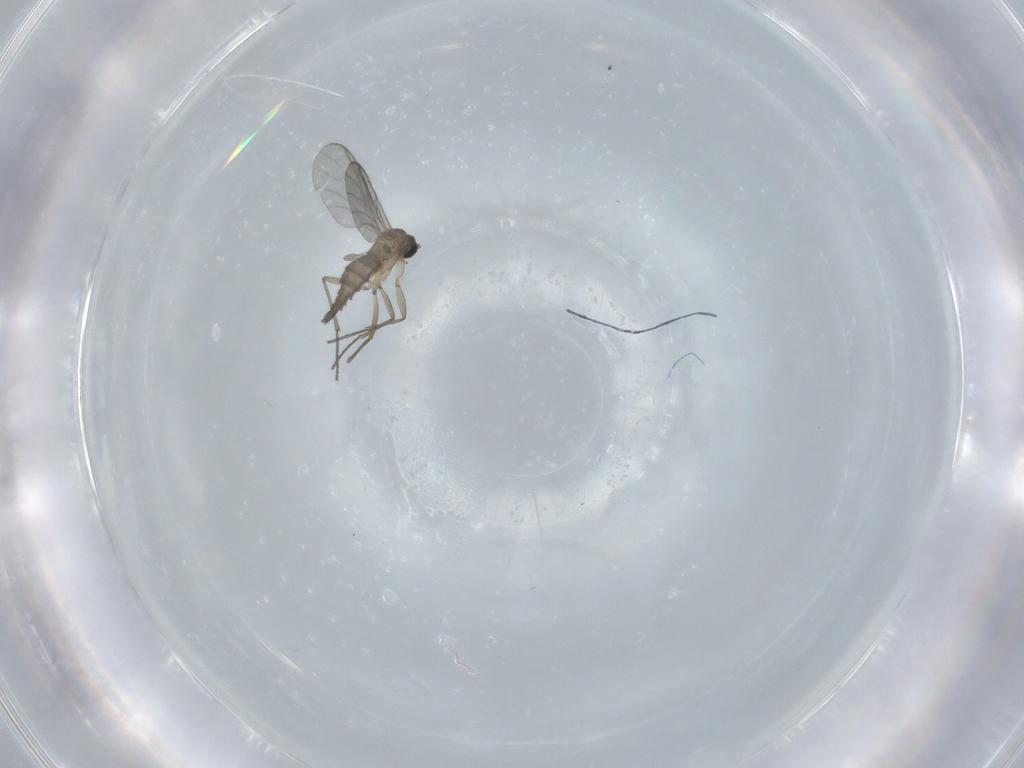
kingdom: Animalia
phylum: Arthropoda
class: Insecta
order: Diptera
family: Sciaridae
